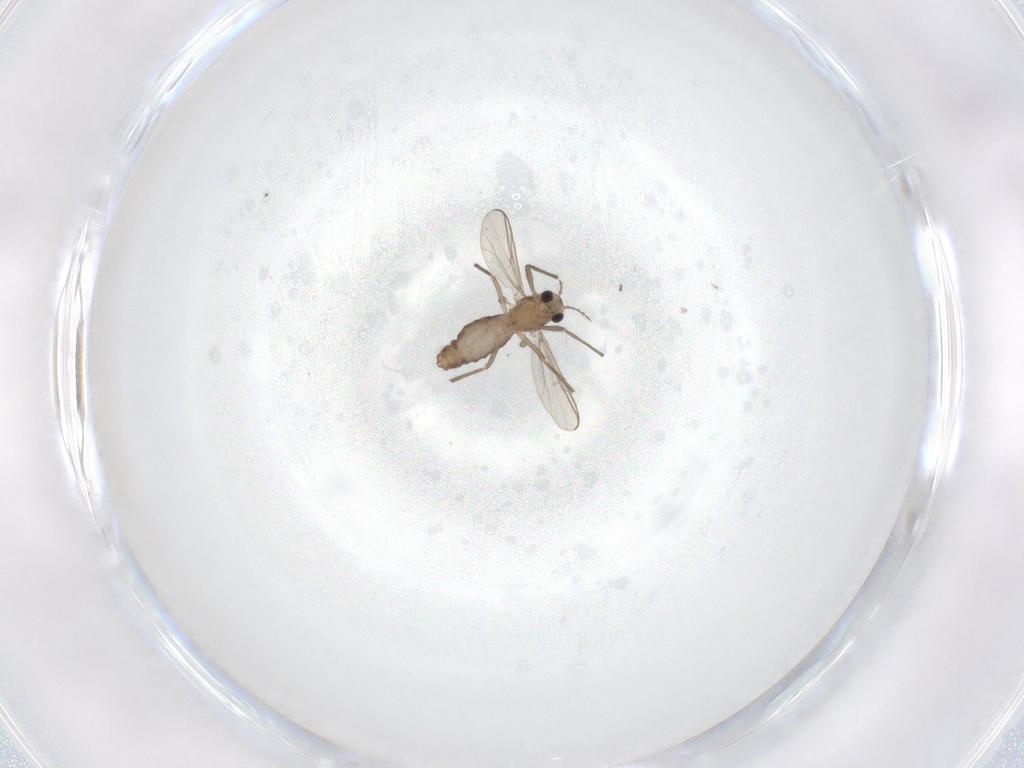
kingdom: Animalia
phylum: Arthropoda
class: Insecta
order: Diptera
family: Chironomidae
